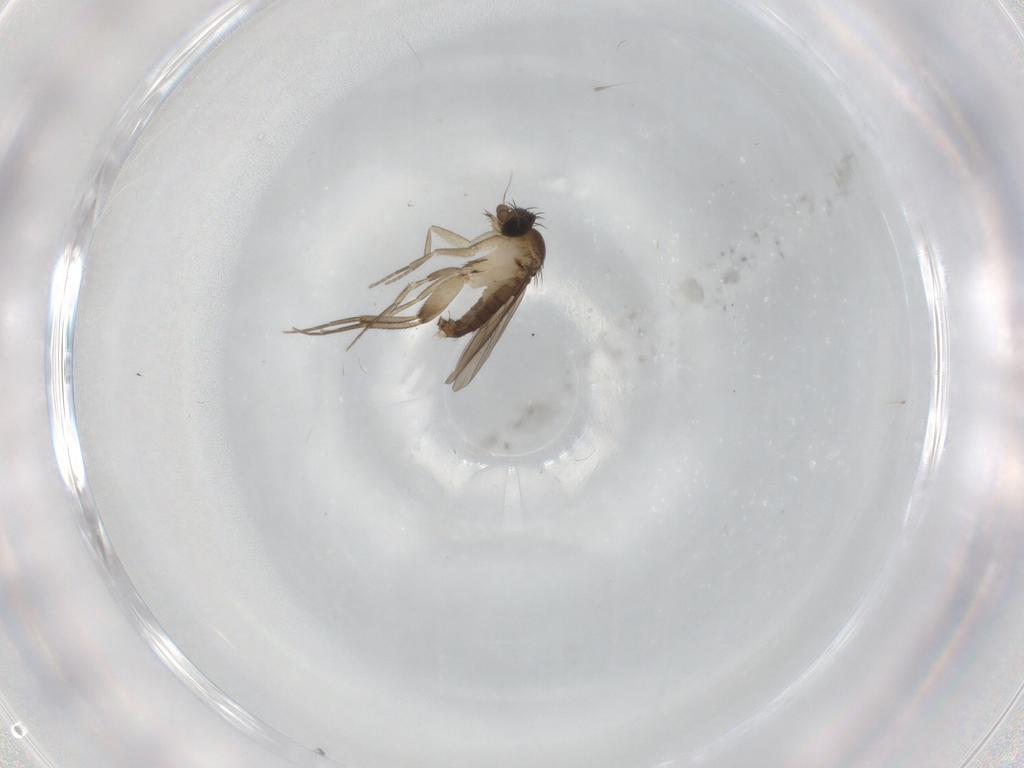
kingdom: Animalia
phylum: Arthropoda
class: Insecta
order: Diptera
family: Phoridae
